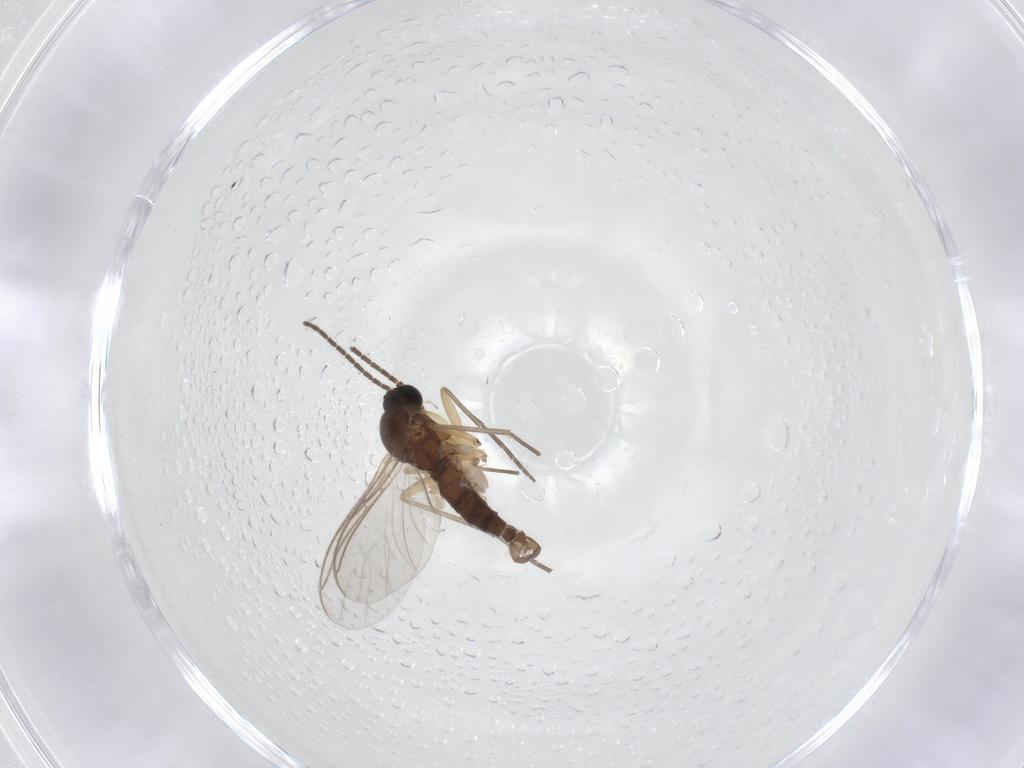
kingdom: Animalia
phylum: Arthropoda
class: Insecta
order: Diptera
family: Sciaridae
